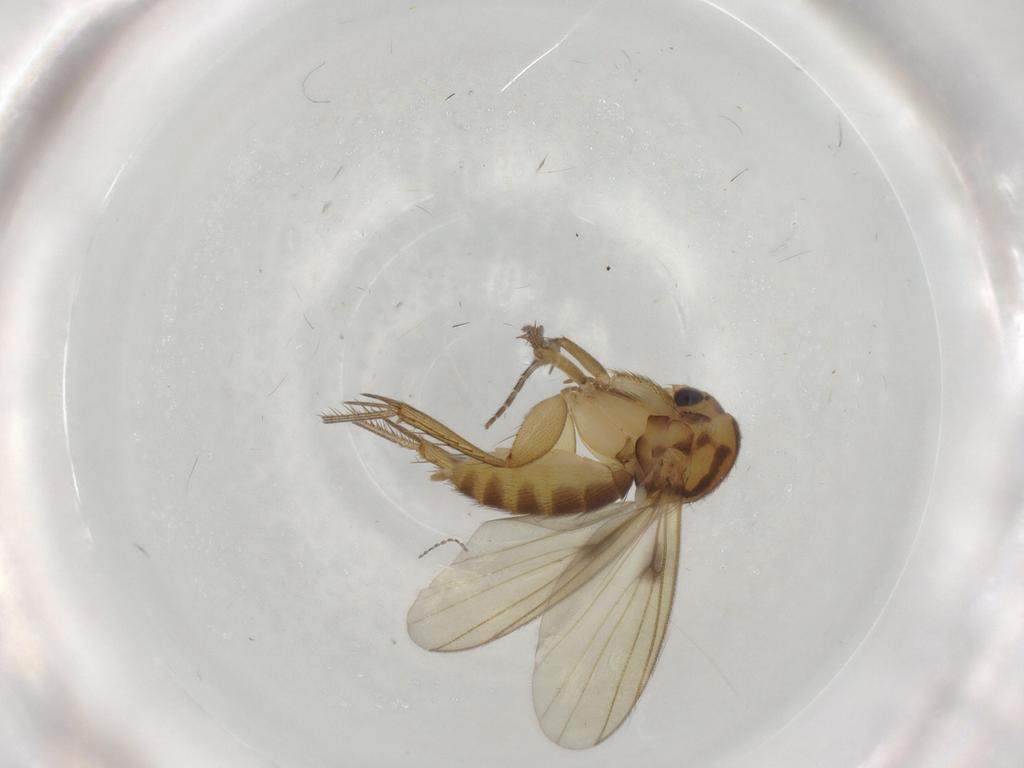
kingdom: Animalia
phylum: Arthropoda
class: Insecta
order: Diptera
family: Mycetophilidae
